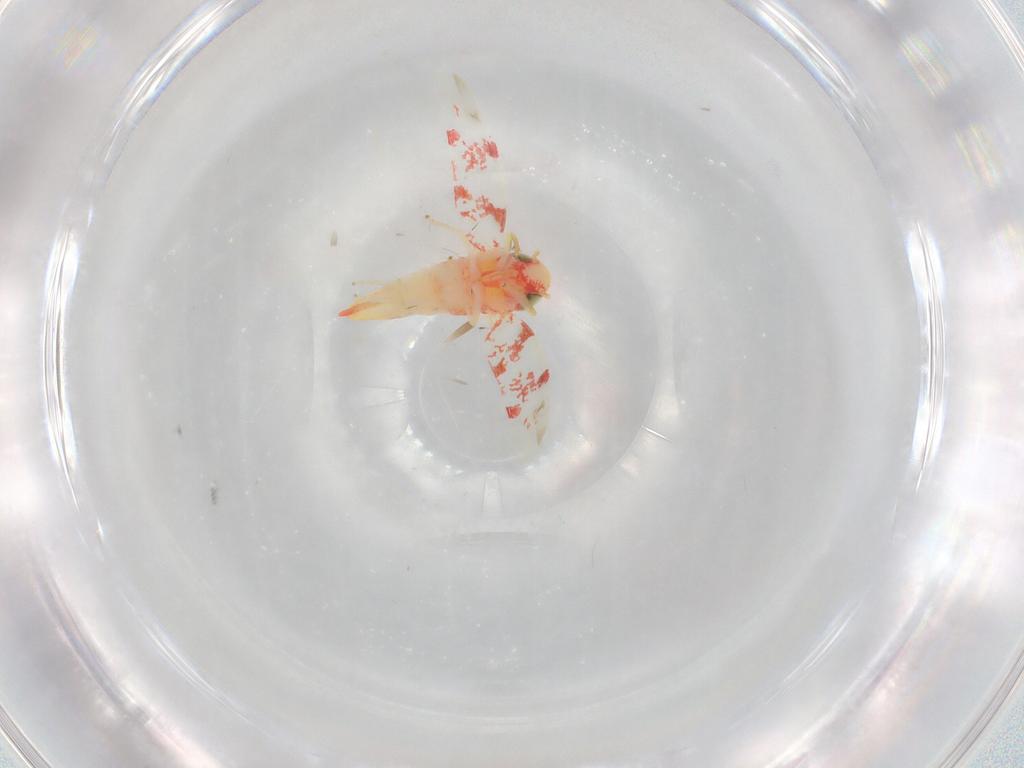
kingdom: Animalia
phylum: Arthropoda
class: Insecta
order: Hemiptera
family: Cicadellidae
